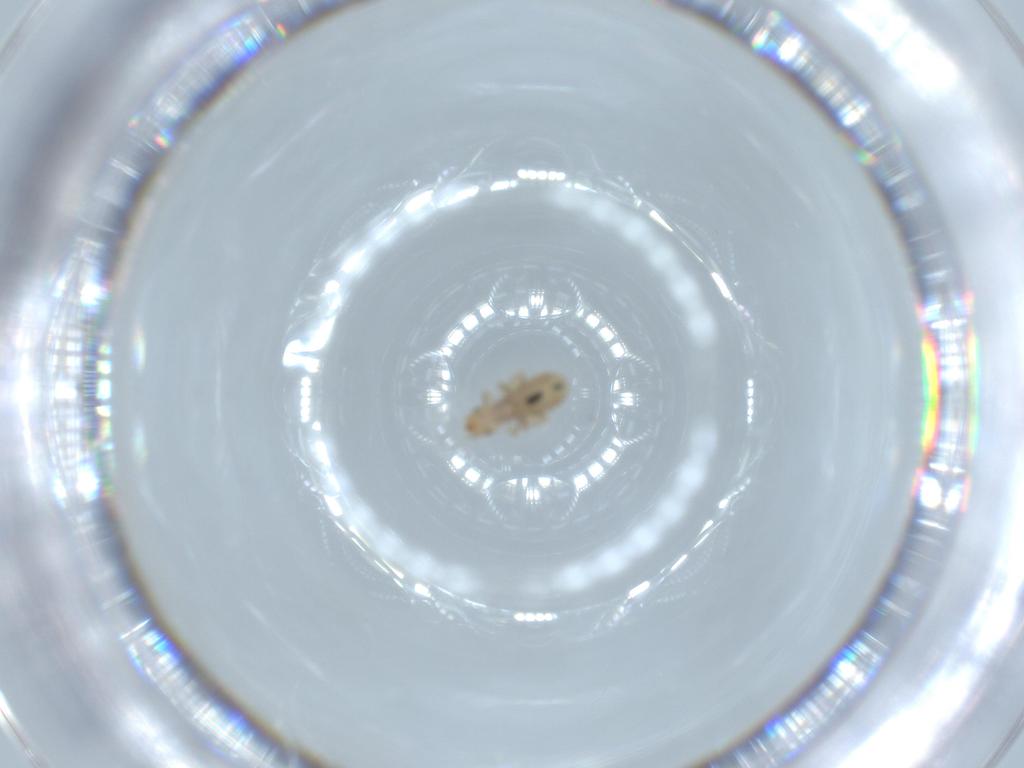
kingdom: Animalia
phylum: Arthropoda
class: Insecta
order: Psocodea
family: Liposcelididae
